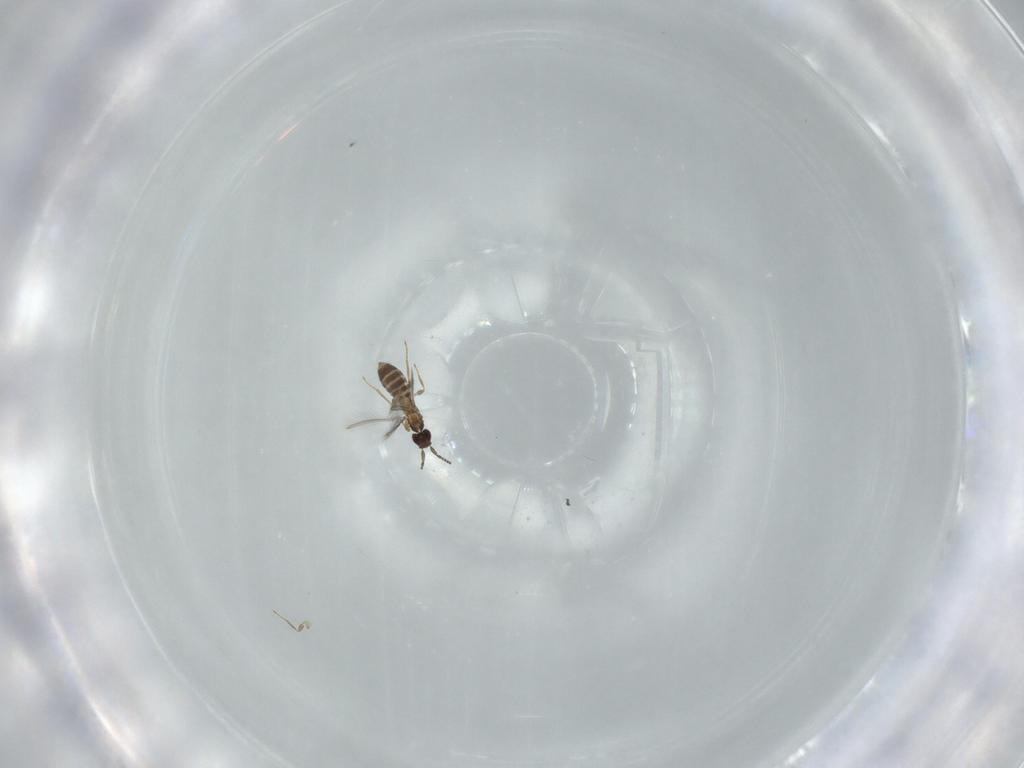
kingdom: Animalia
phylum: Arthropoda
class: Insecta
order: Hymenoptera
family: Mymaridae
